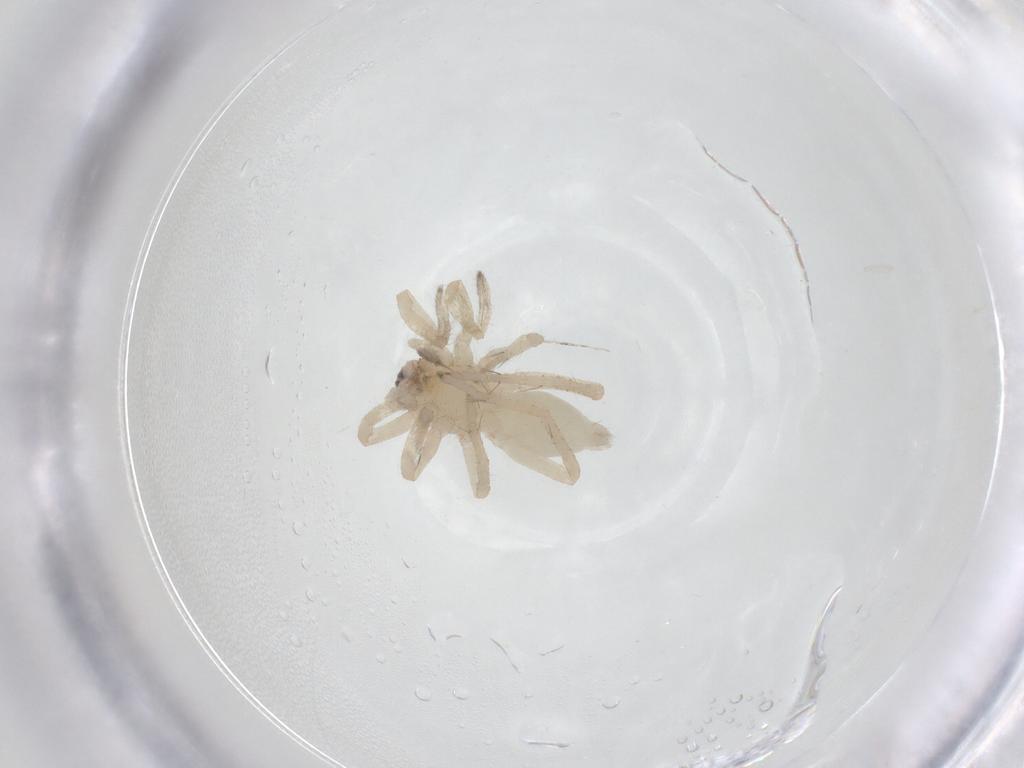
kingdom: Animalia
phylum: Arthropoda
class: Arachnida
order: Araneae
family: Clubionidae
